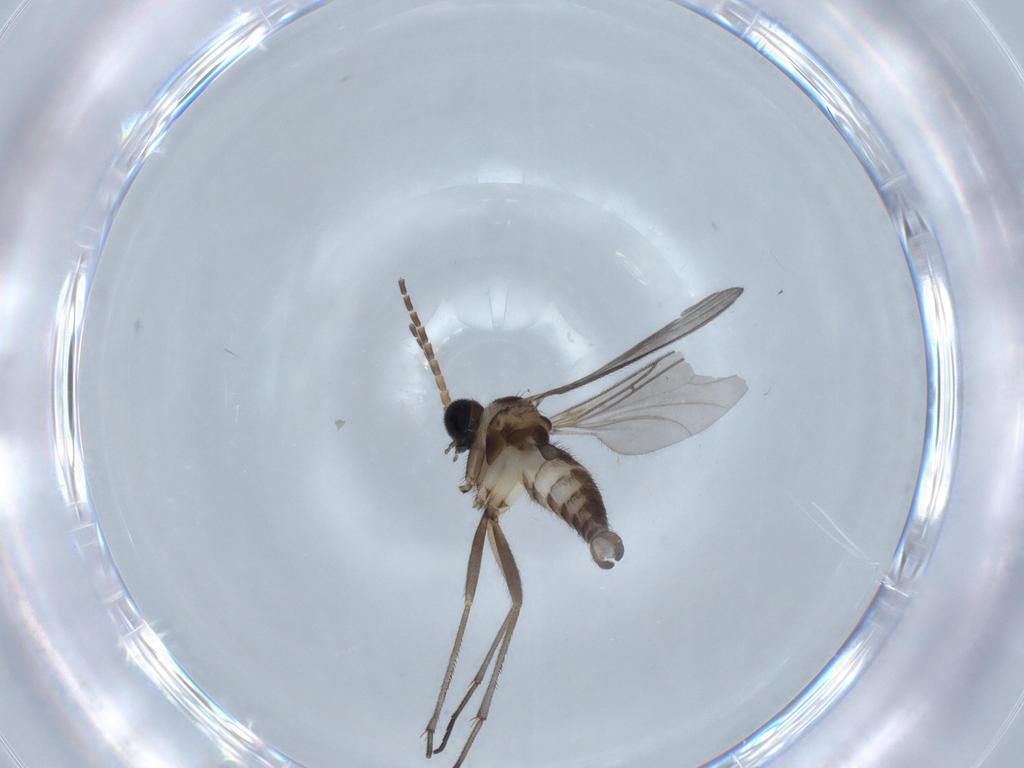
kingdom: Animalia
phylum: Arthropoda
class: Insecta
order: Diptera
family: Sciaridae
